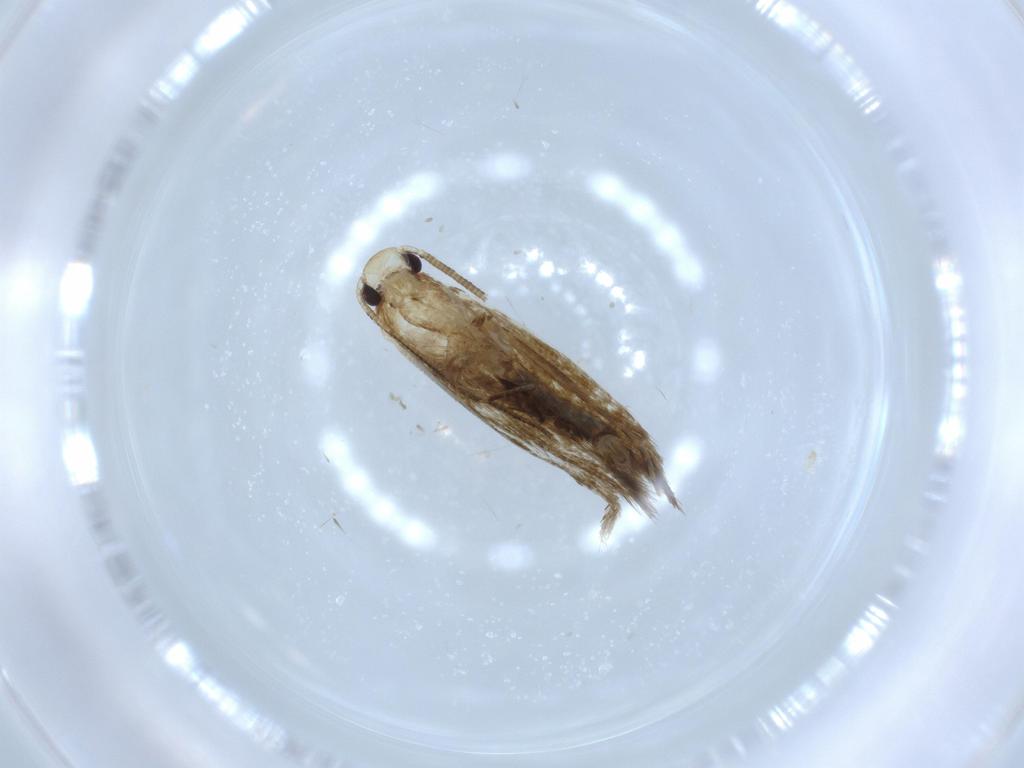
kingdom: Animalia
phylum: Arthropoda
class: Insecta
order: Lepidoptera
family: Tineidae
